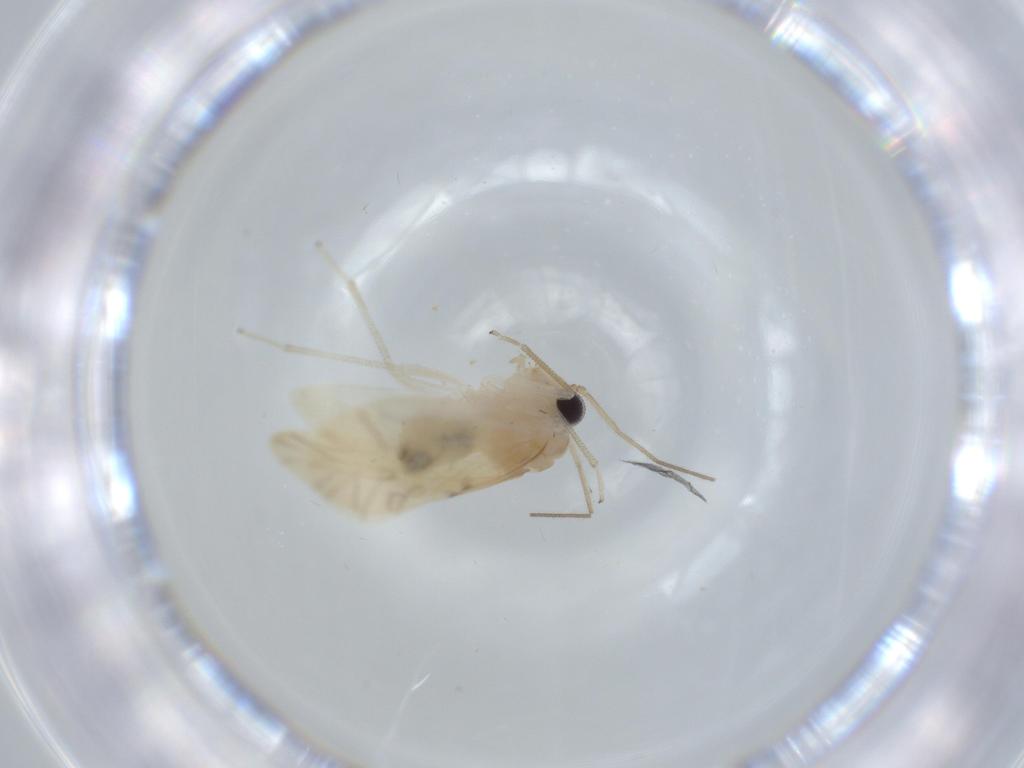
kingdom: Animalia
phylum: Arthropoda
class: Insecta
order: Psocodea
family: Caeciliusidae
